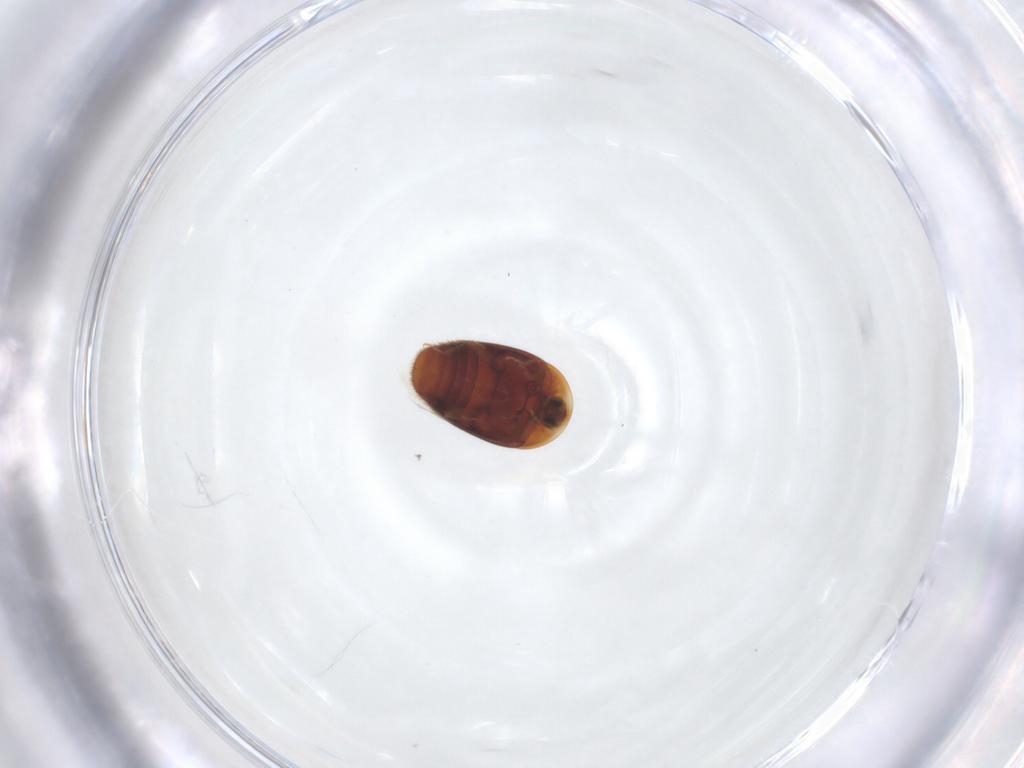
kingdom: Animalia
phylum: Arthropoda
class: Insecta
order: Coleoptera
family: Corylophidae
